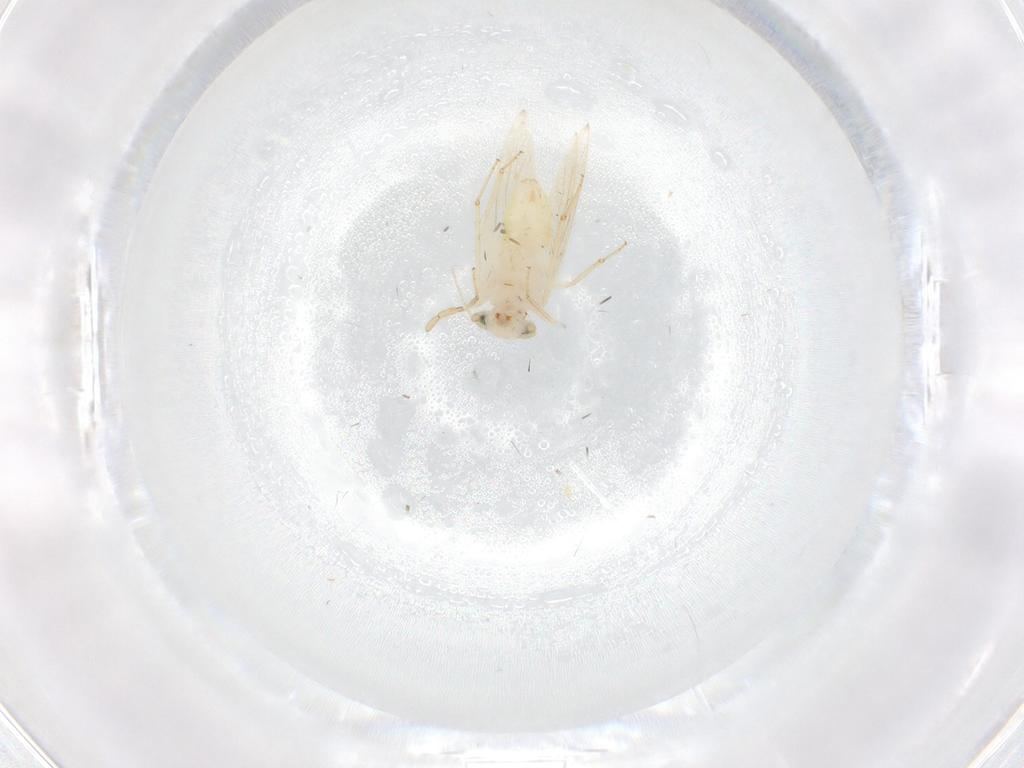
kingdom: Animalia
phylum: Arthropoda
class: Insecta
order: Psocodea
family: Lepidopsocidae
